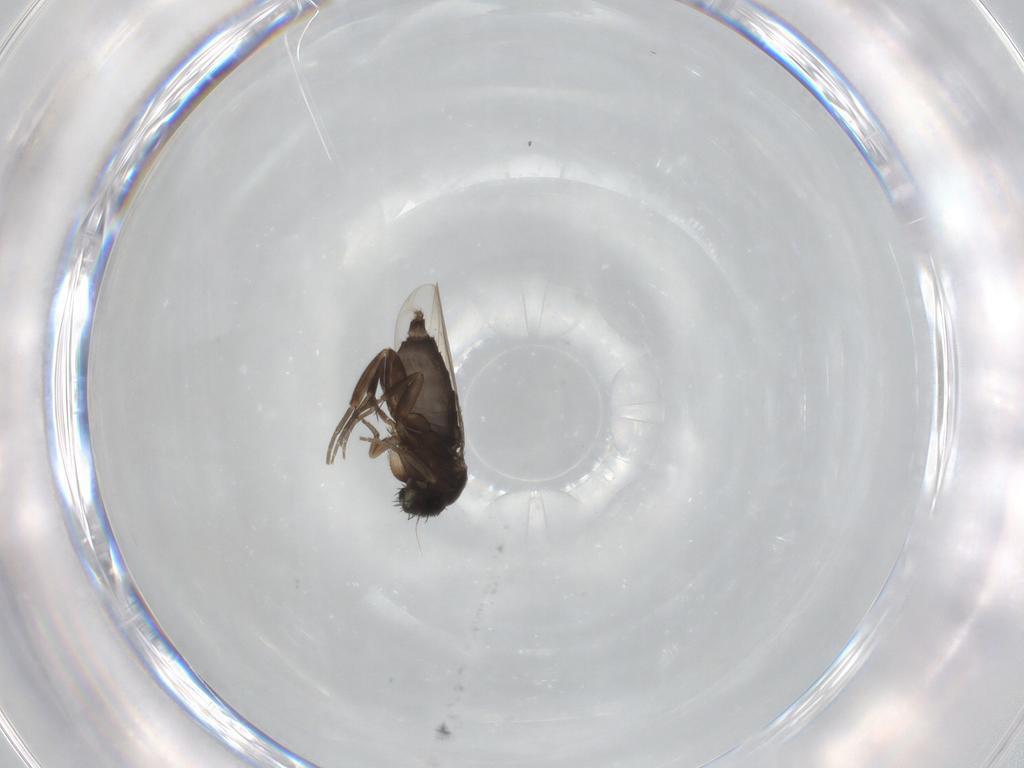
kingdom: Animalia
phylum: Arthropoda
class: Insecta
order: Diptera
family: Phoridae
